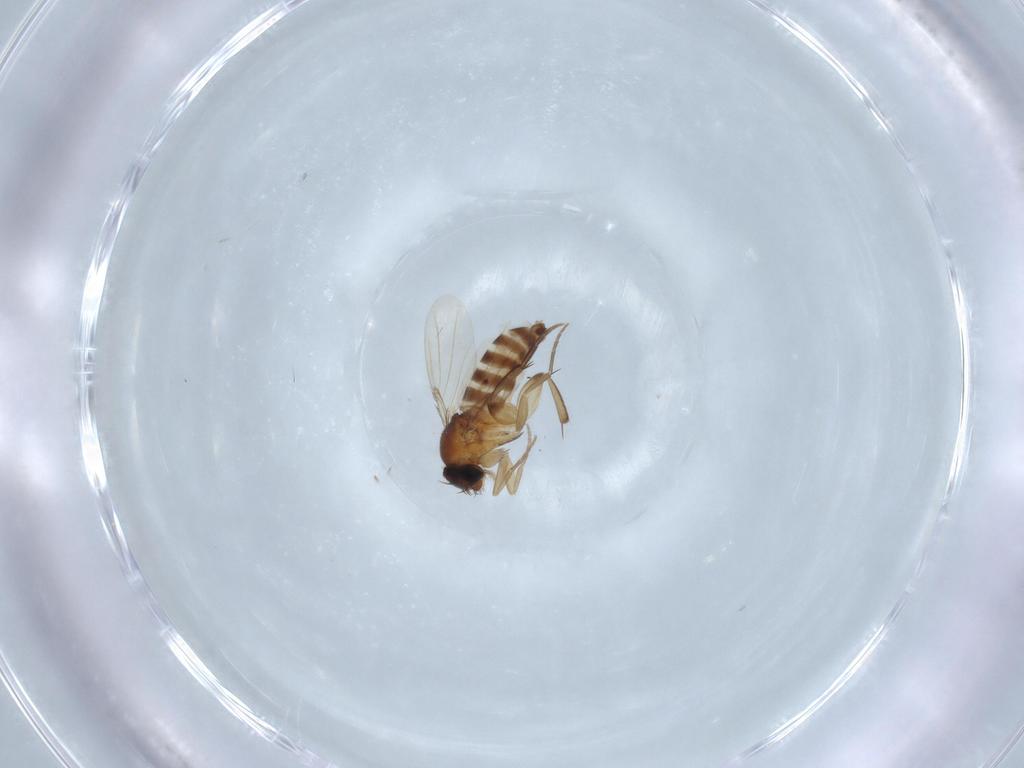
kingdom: Animalia
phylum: Arthropoda
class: Insecta
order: Diptera
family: Phoridae
